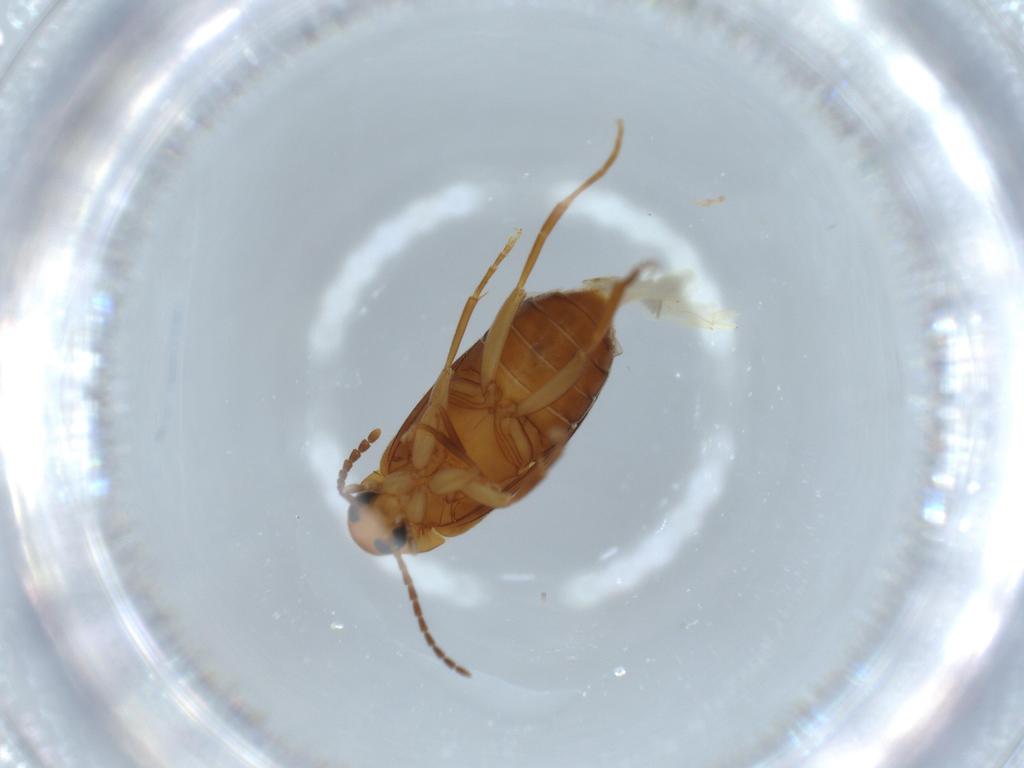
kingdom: Animalia
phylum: Arthropoda
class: Insecta
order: Coleoptera
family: Scraptiidae
